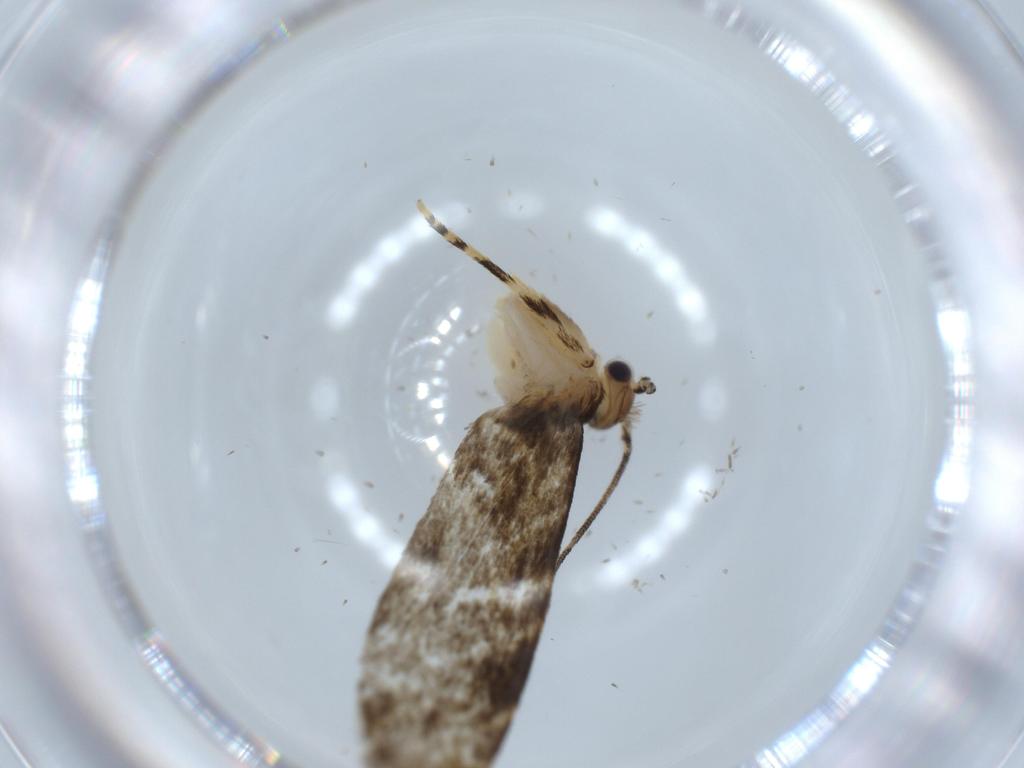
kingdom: Animalia
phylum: Arthropoda
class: Insecta
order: Lepidoptera
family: Tineidae
